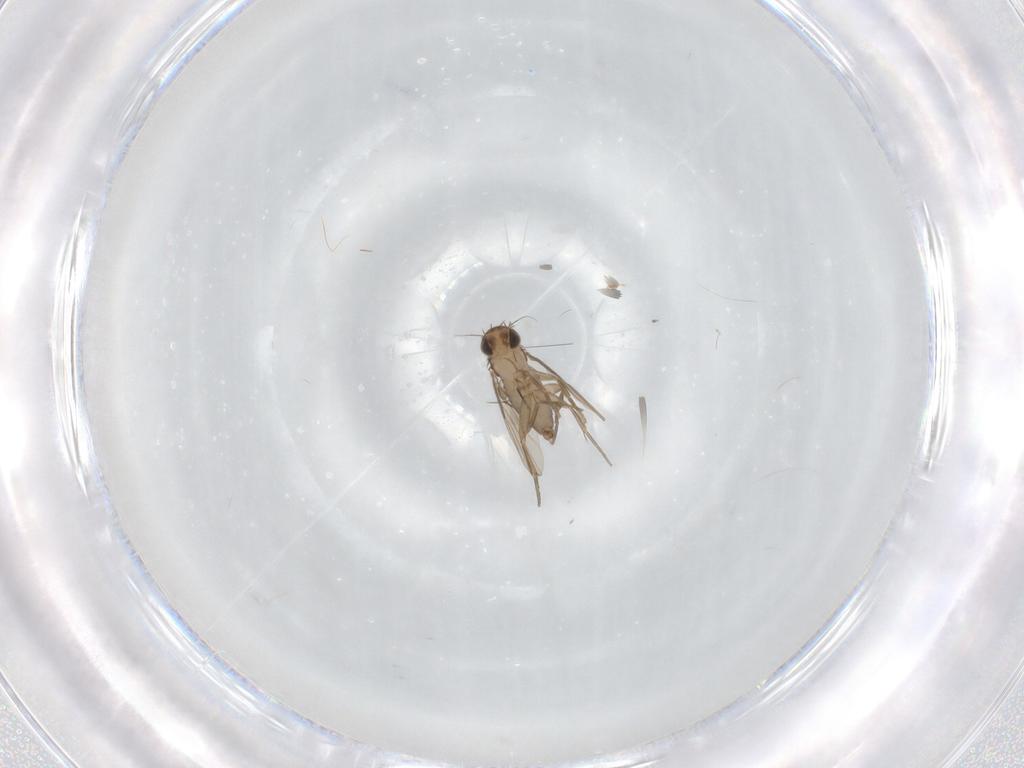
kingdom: Animalia
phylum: Arthropoda
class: Insecta
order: Diptera
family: Phoridae
